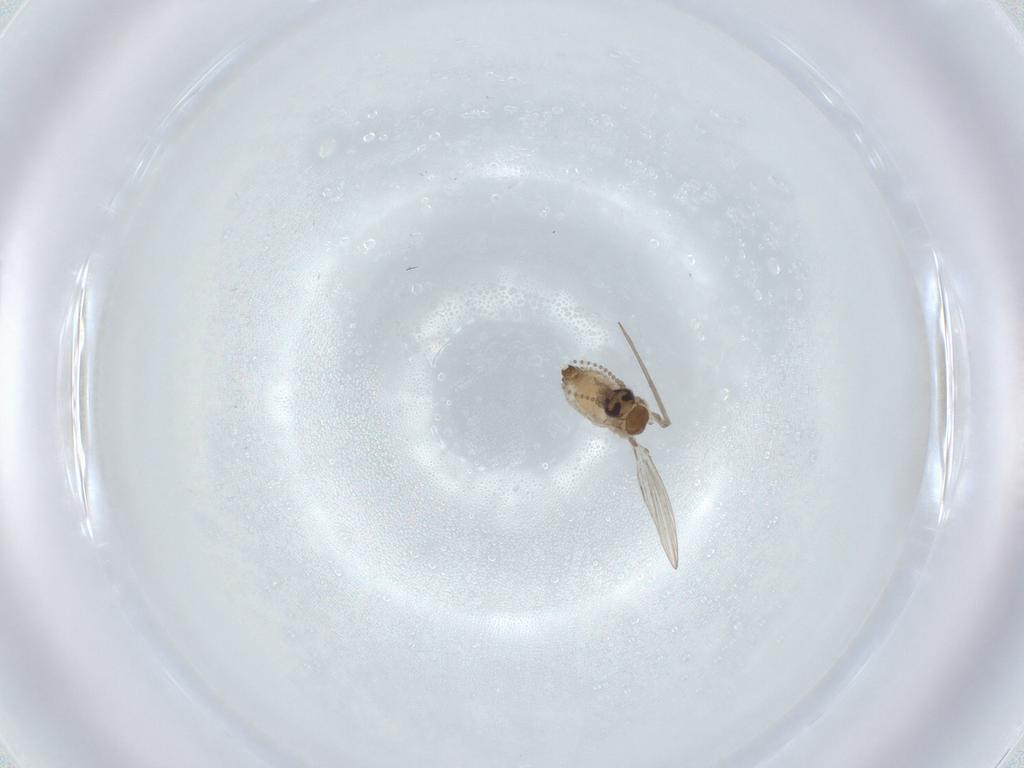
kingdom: Animalia
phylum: Arthropoda
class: Insecta
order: Diptera
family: Psychodidae
